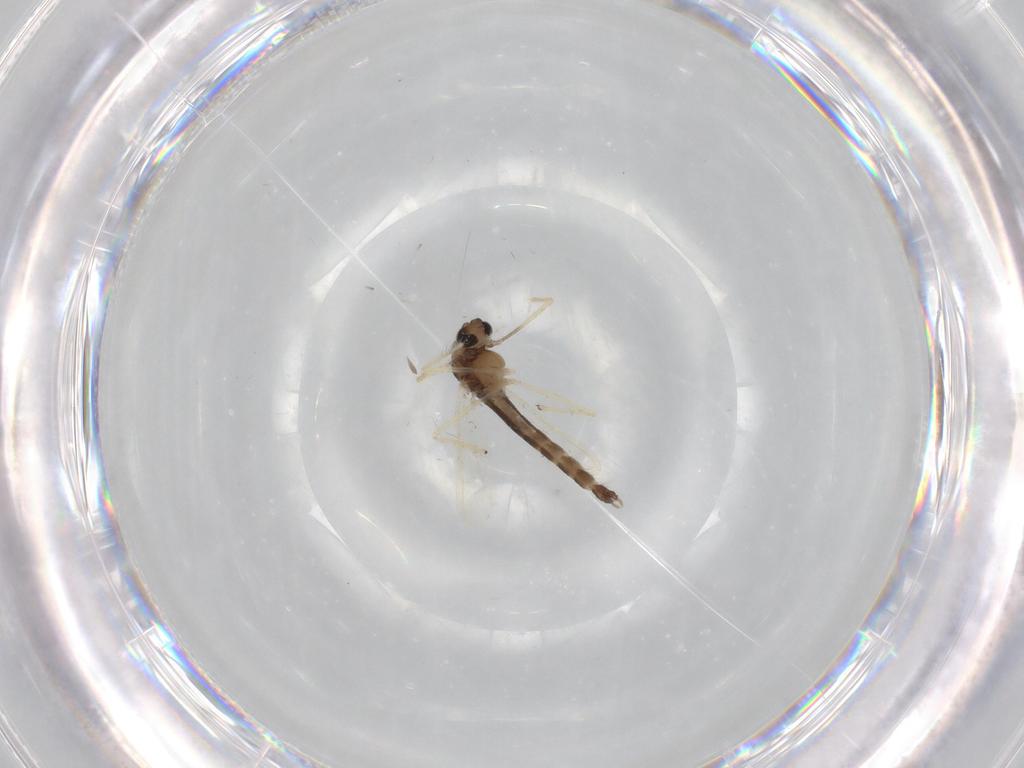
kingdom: Animalia
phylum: Arthropoda
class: Insecta
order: Diptera
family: Chironomidae
